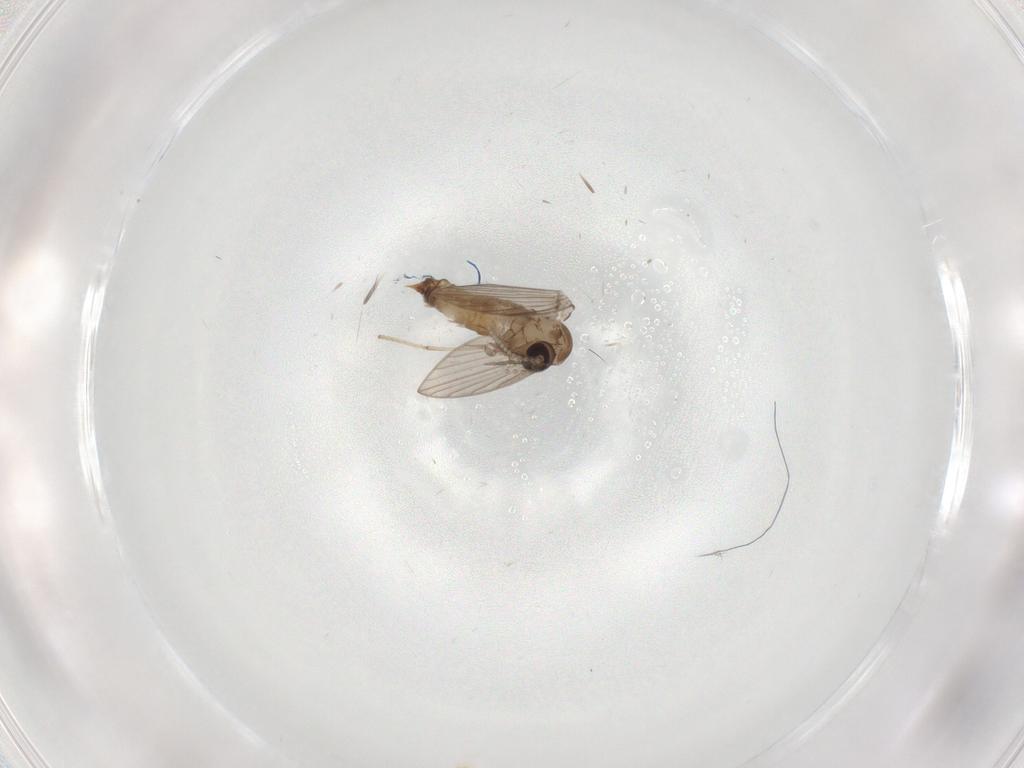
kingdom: Animalia
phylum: Arthropoda
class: Insecta
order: Diptera
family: Psychodidae
